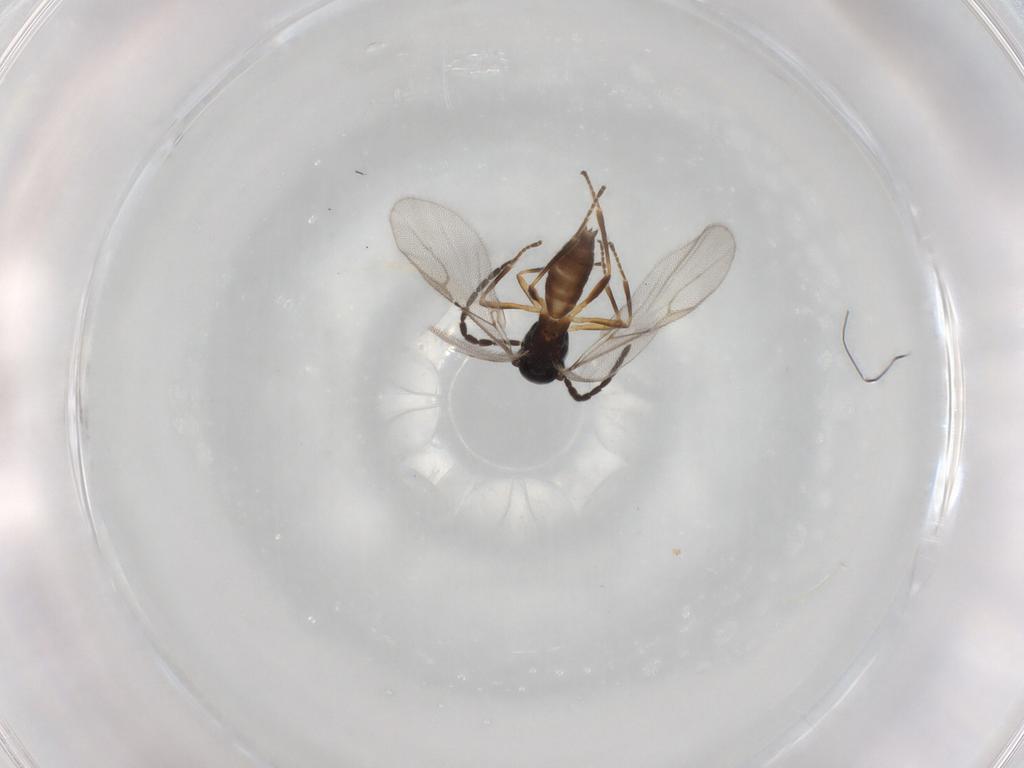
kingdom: Animalia
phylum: Arthropoda
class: Insecta
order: Hymenoptera
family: Braconidae
